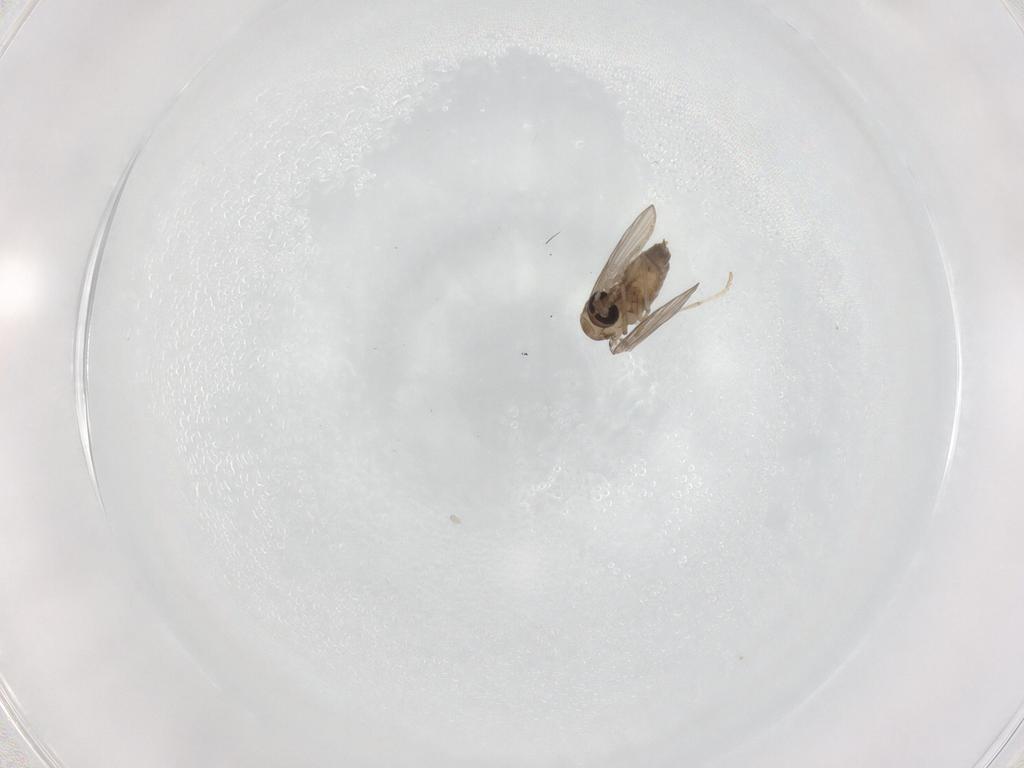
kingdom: Animalia
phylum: Arthropoda
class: Insecta
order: Diptera
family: Psychodidae
